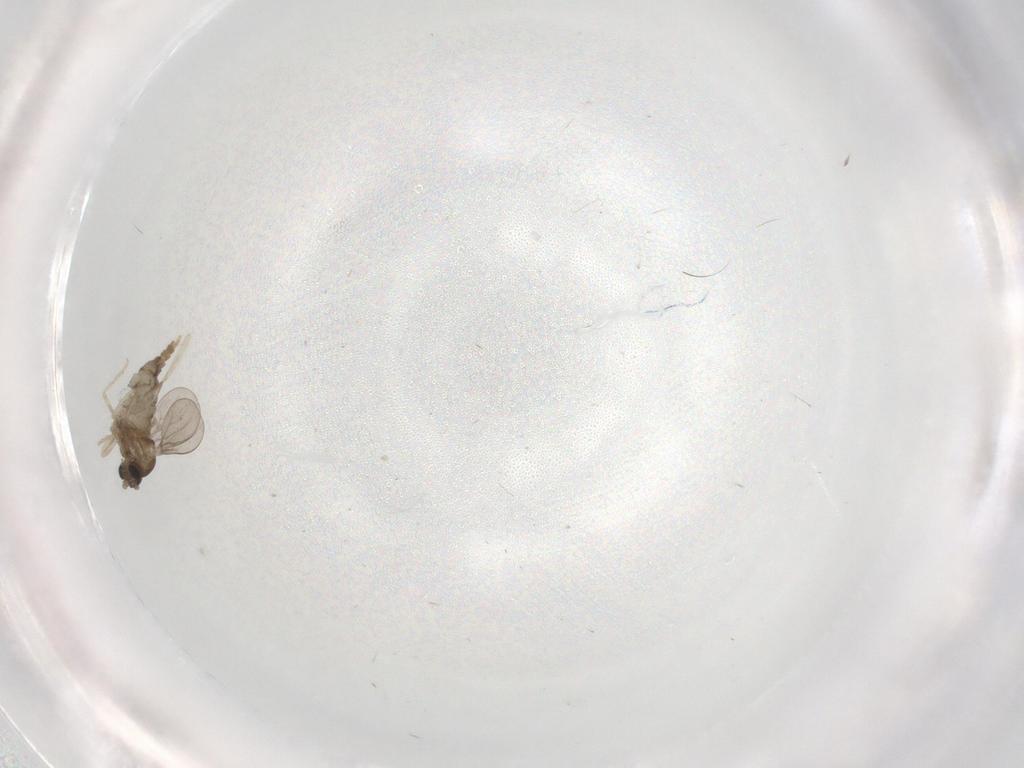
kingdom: Animalia
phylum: Arthropoda
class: Insecta
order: Diptera
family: Cecidomyiidae
